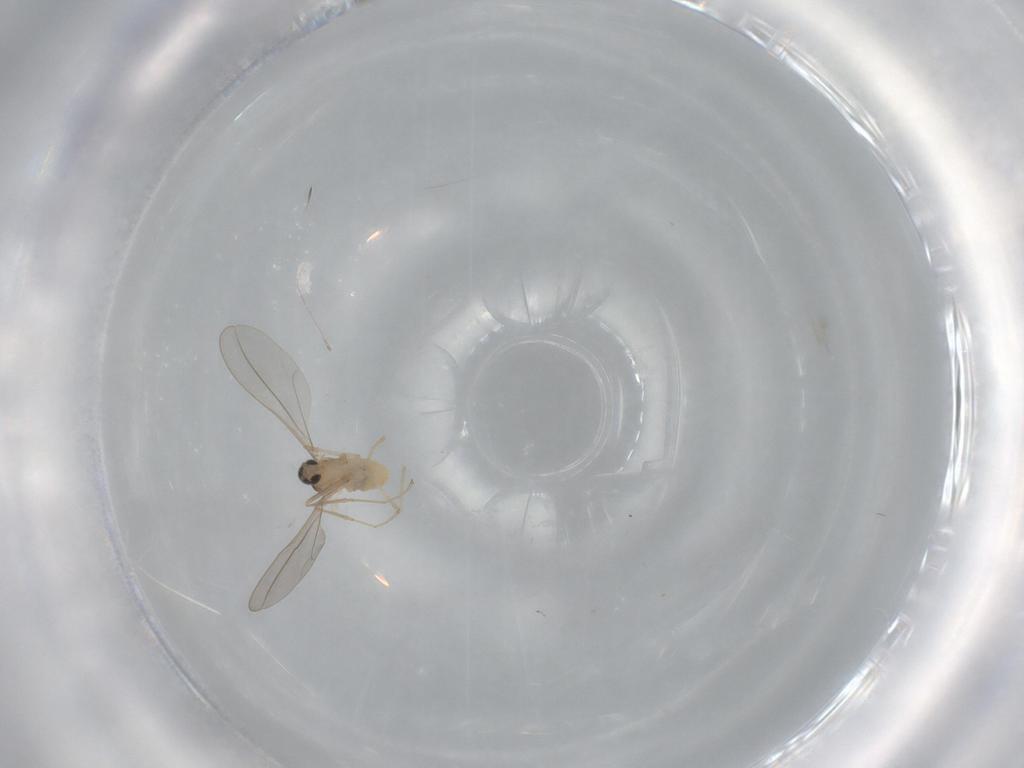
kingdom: Animalia
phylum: Arthropoda
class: Insecta
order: Diptera
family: Cecidomyiidae
